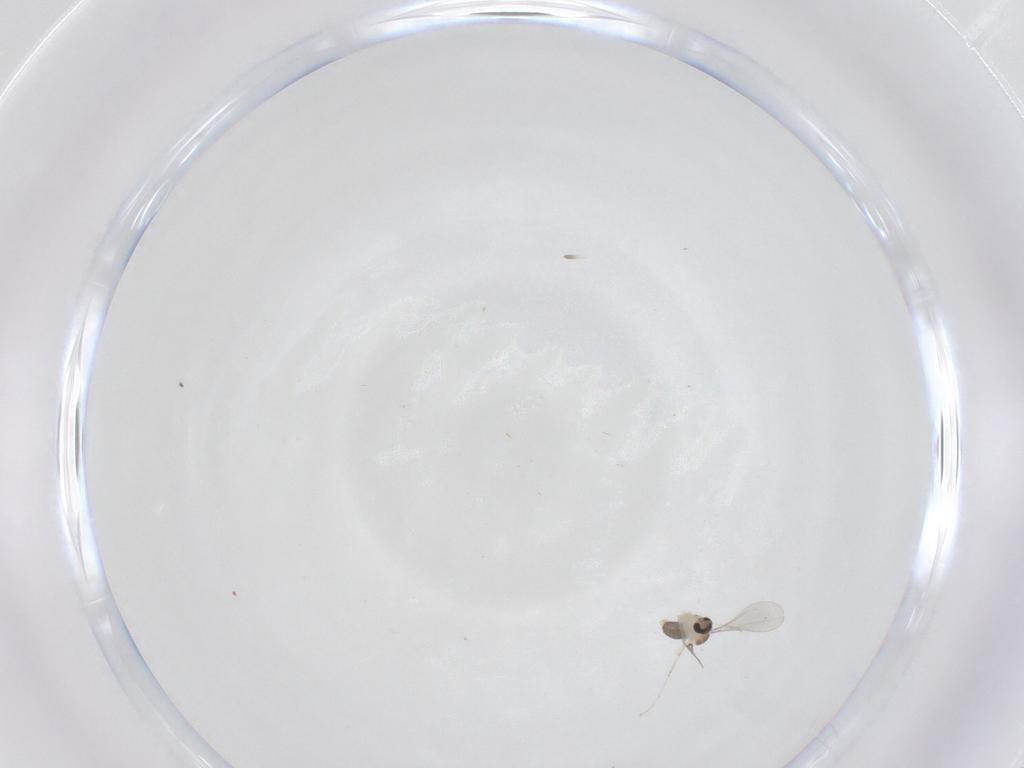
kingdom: Animalia
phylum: Arthropoda
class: Insecta
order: Diptera
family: Cecidomyiidae
